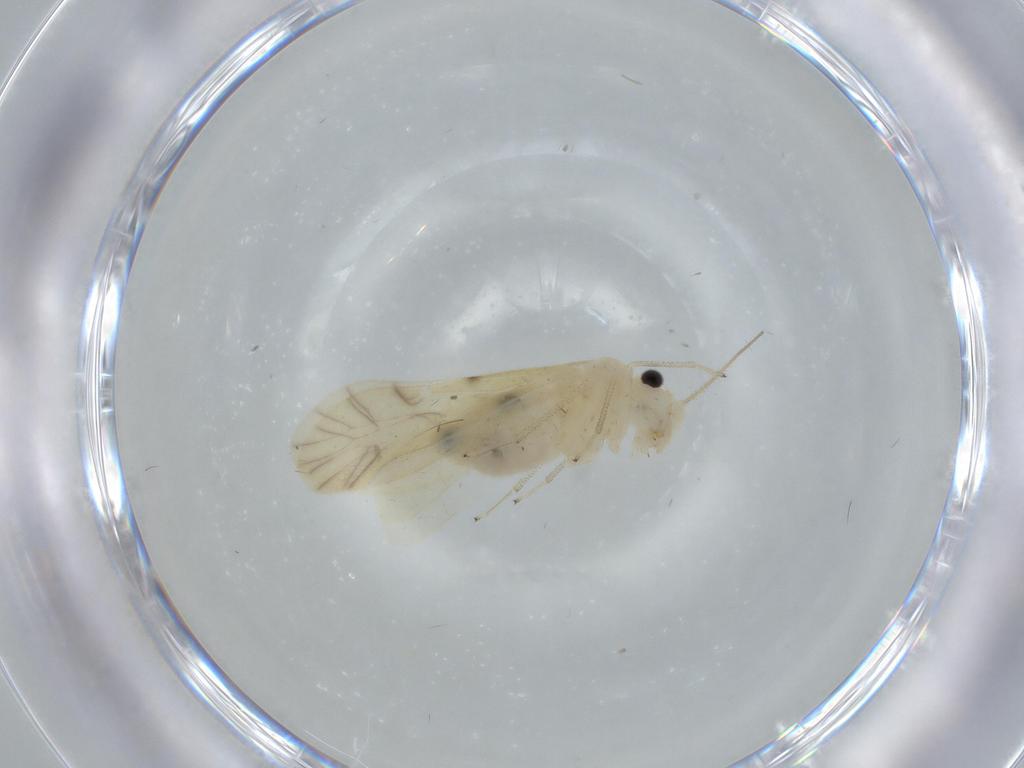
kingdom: Animalia
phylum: Arthropoda
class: Insecta
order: Psocodea
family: Caeciliusidae
